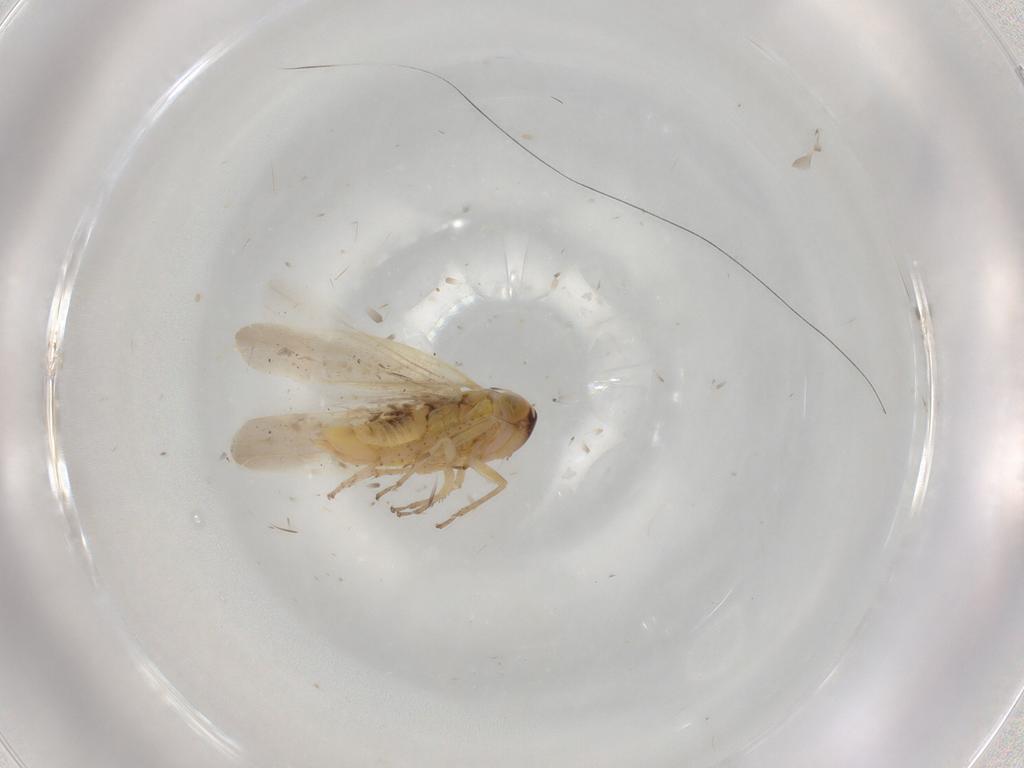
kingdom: Animalia
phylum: Arthropoda
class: Insecta
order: Hemiptera
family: Cicadellidae
